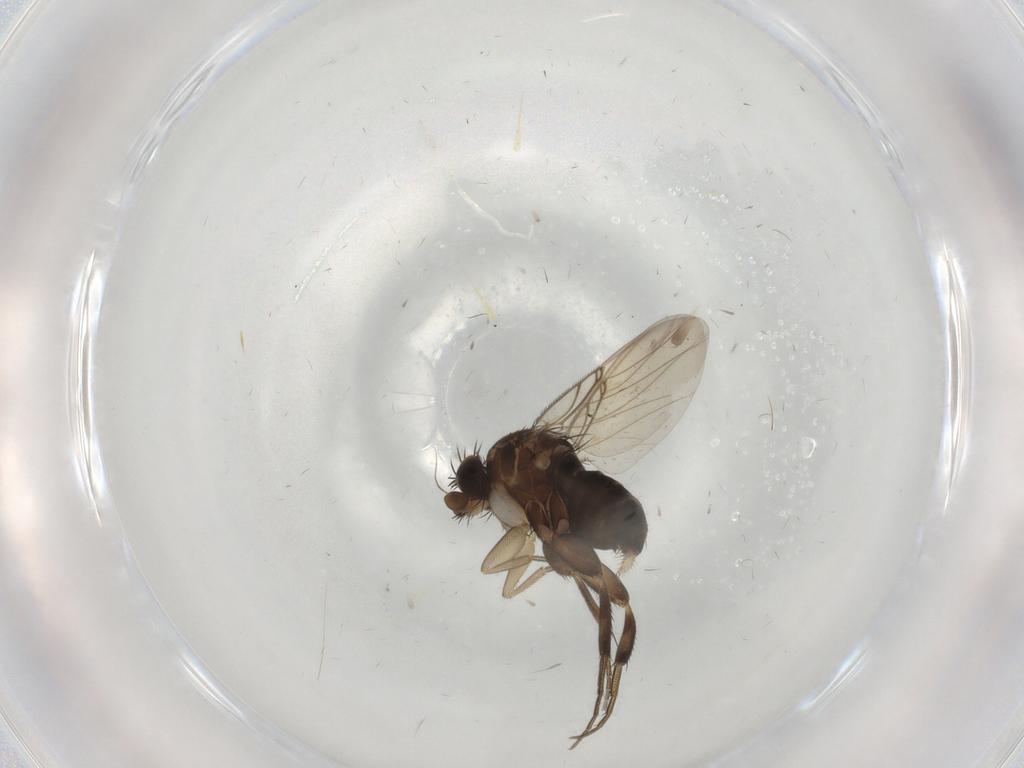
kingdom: Animalia
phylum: Arthropoda
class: Insecta
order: Diptera
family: Phoridae
